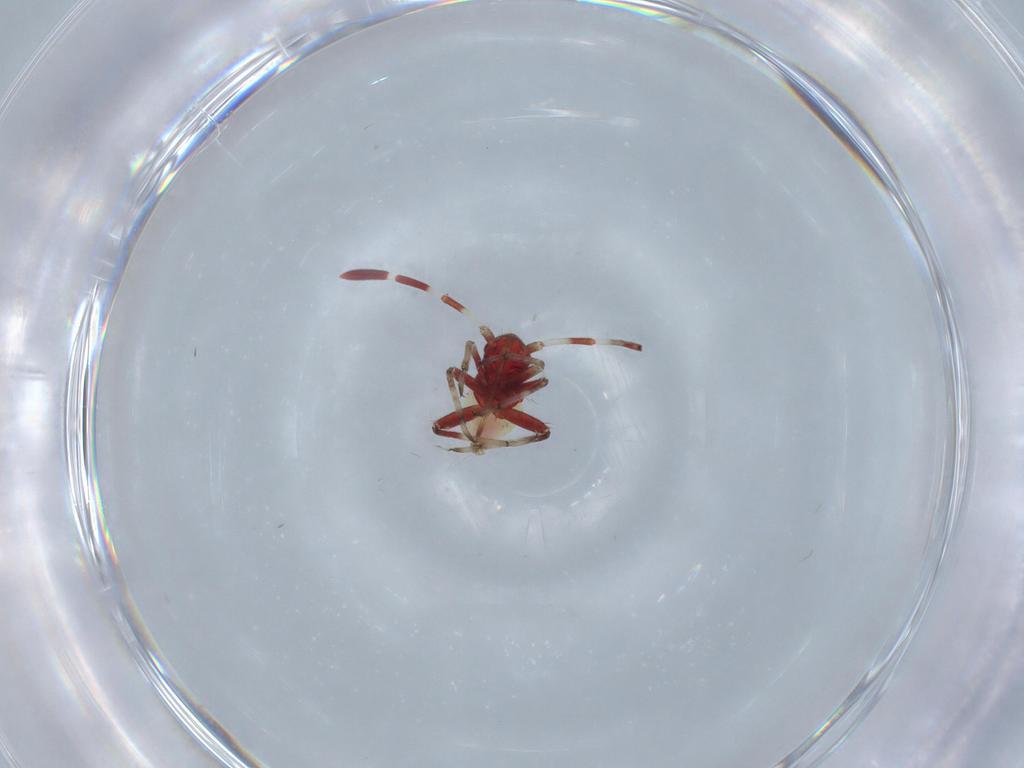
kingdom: Animalia
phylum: Arthropoda
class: Insecta
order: Hemiptera
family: Miridae
